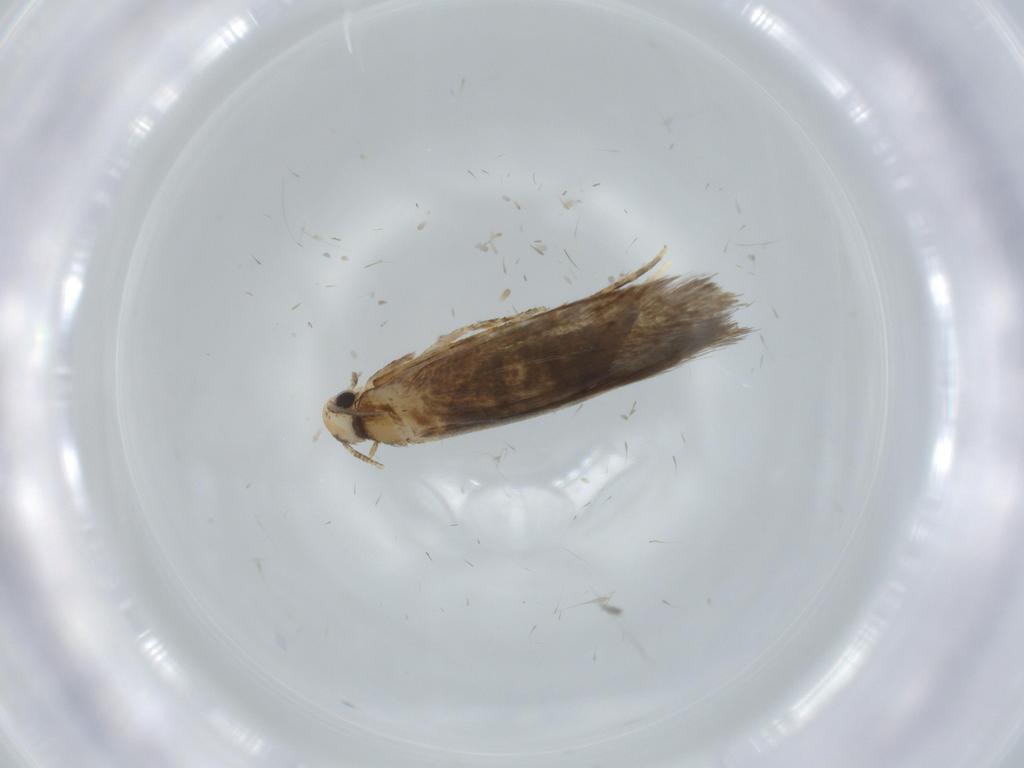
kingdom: Animalia
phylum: Arthropoda
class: Insecta
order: Lepidoptera
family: Tineidae
